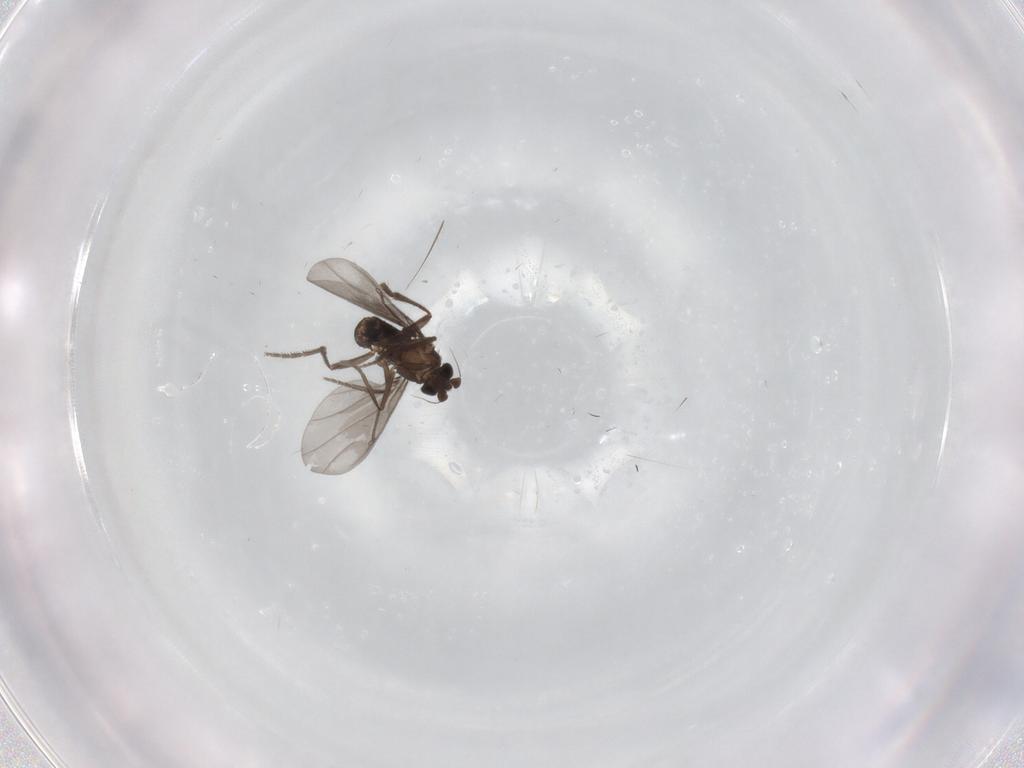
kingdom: Animalia
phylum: Arthropoda
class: Insecta
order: Diptera
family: Phoridae
